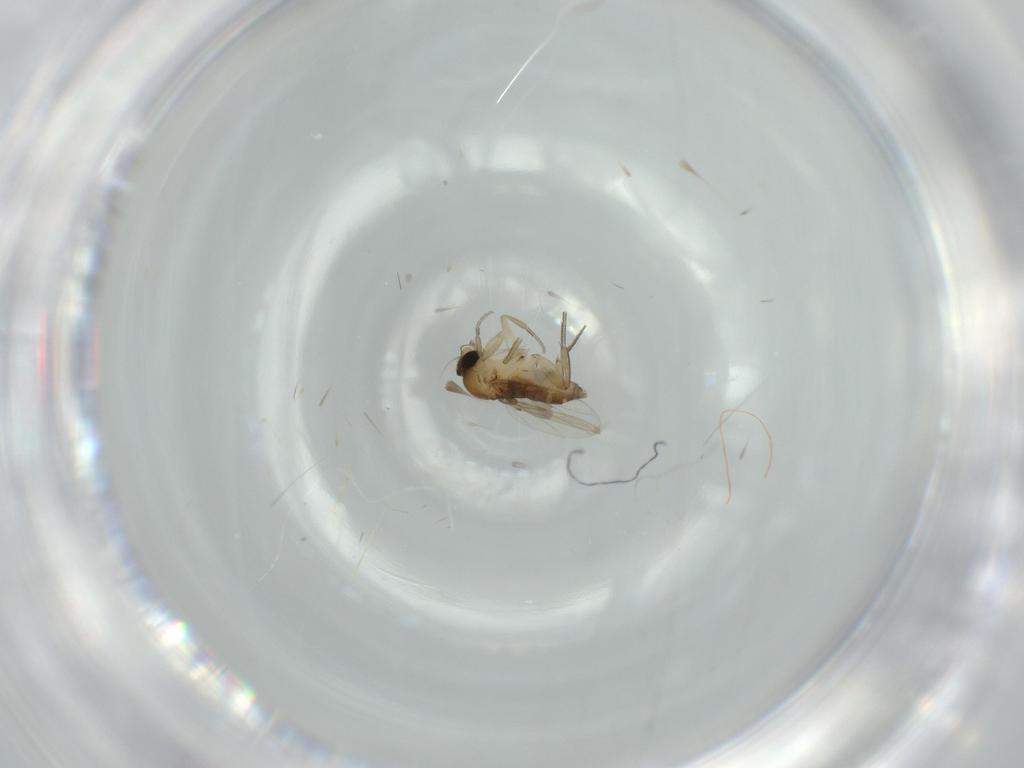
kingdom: Animalia
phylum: Arthropoda
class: Insecta
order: Diptera
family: Phoridae
